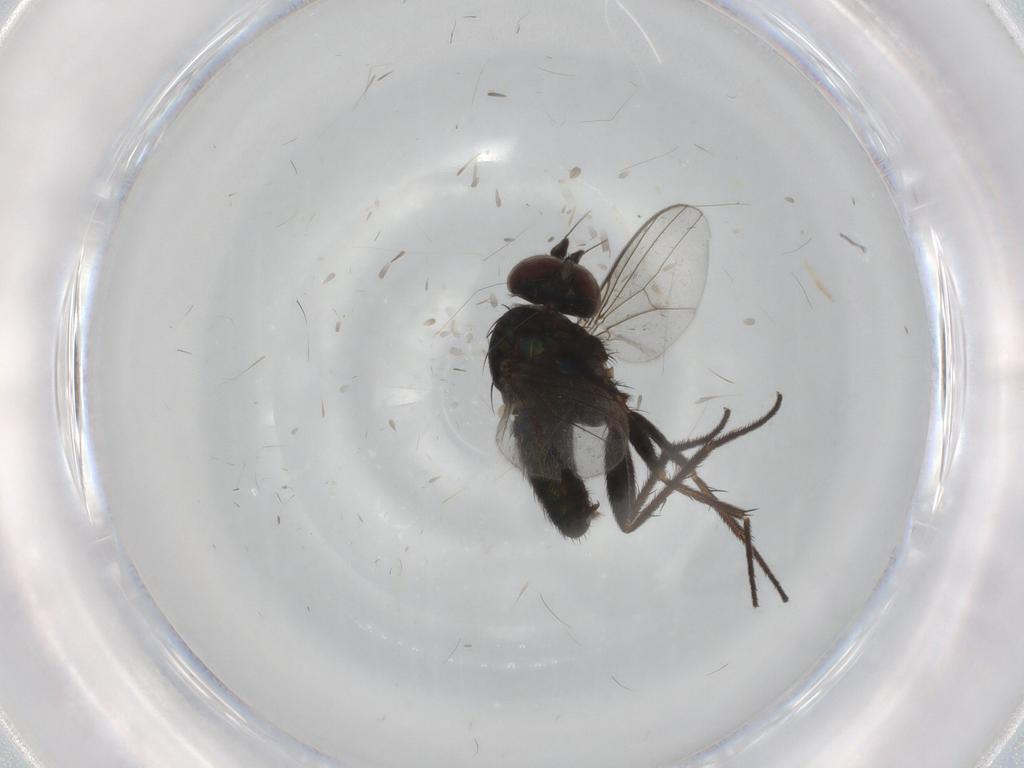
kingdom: Animalia
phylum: Arthropoda
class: Insecta
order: Diptera
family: Dolichopodidae
